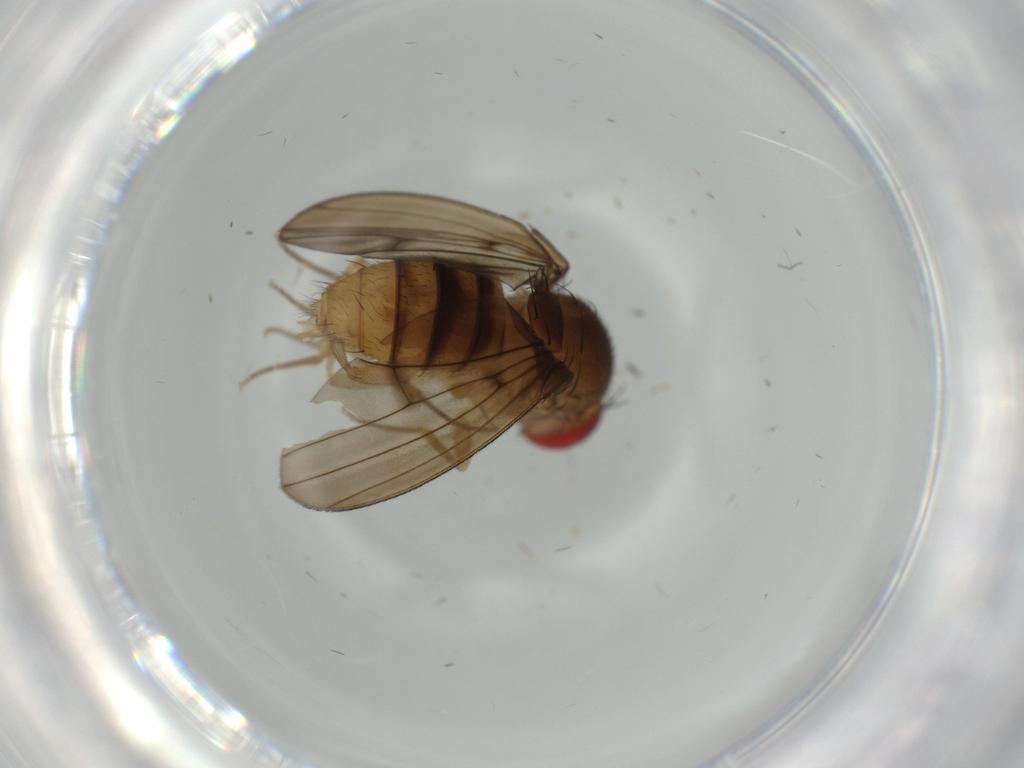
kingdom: Animalia
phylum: Arthropoda
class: Insecta
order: Diptera
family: Drosophilidae
